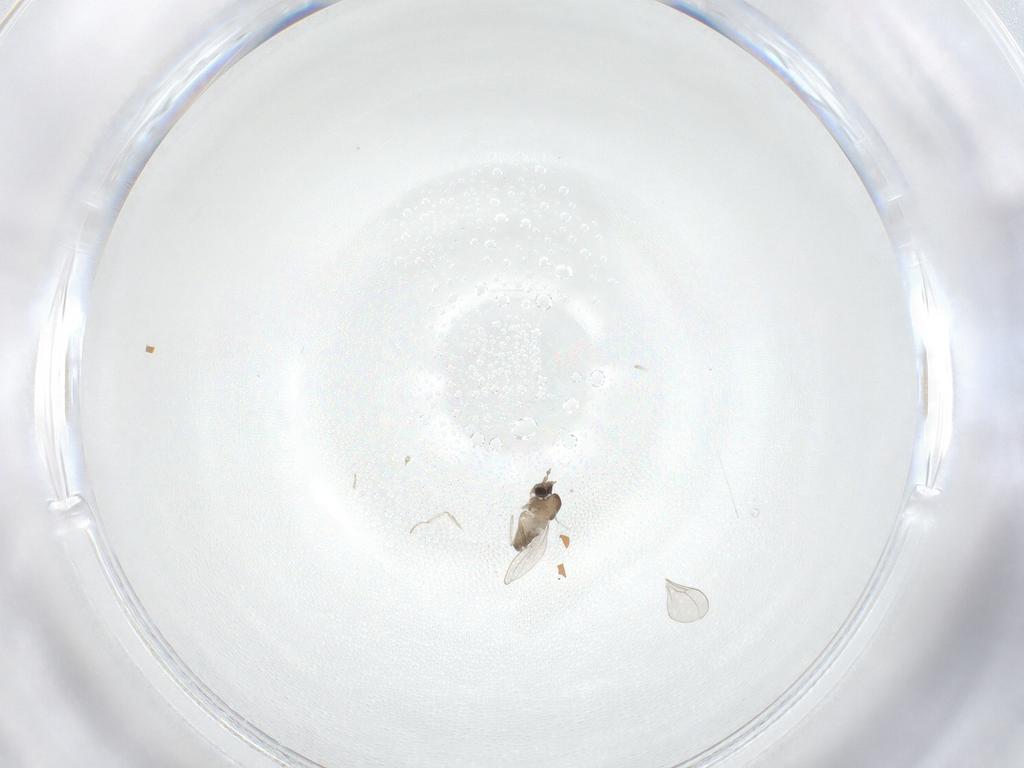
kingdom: Animalia
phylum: Arthropoda
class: Insecta
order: Diptera
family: Cecidomyiidae
